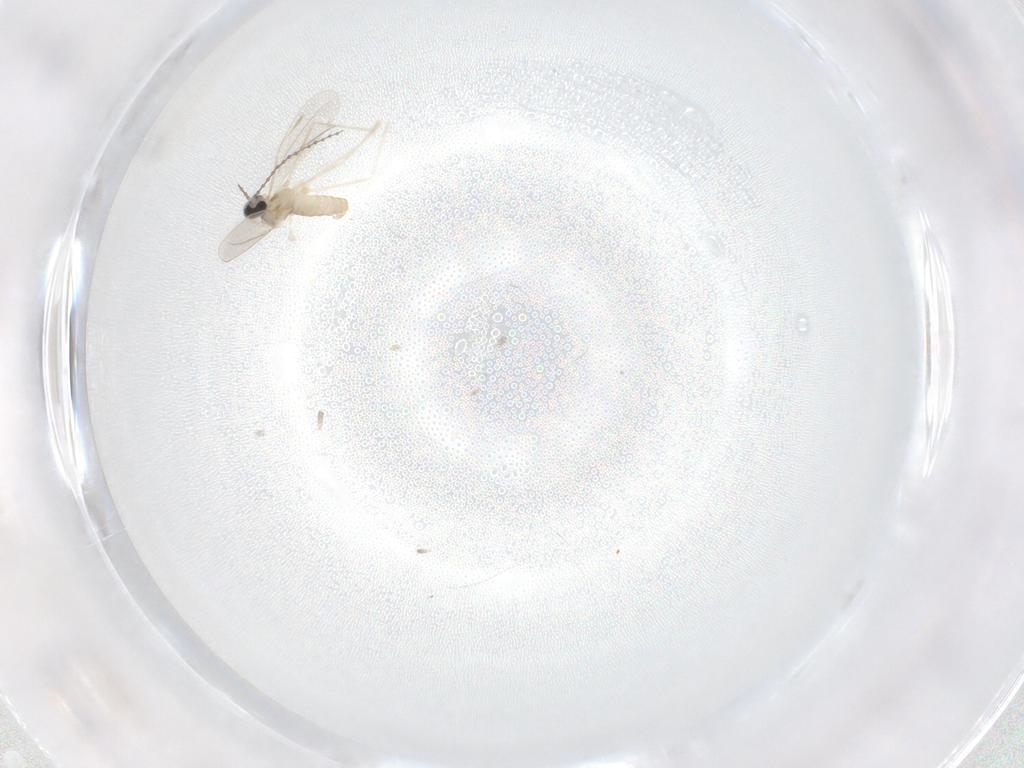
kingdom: Animalia
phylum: Arthropoda
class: Insecta
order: Diptera
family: Cecidomyiidae
